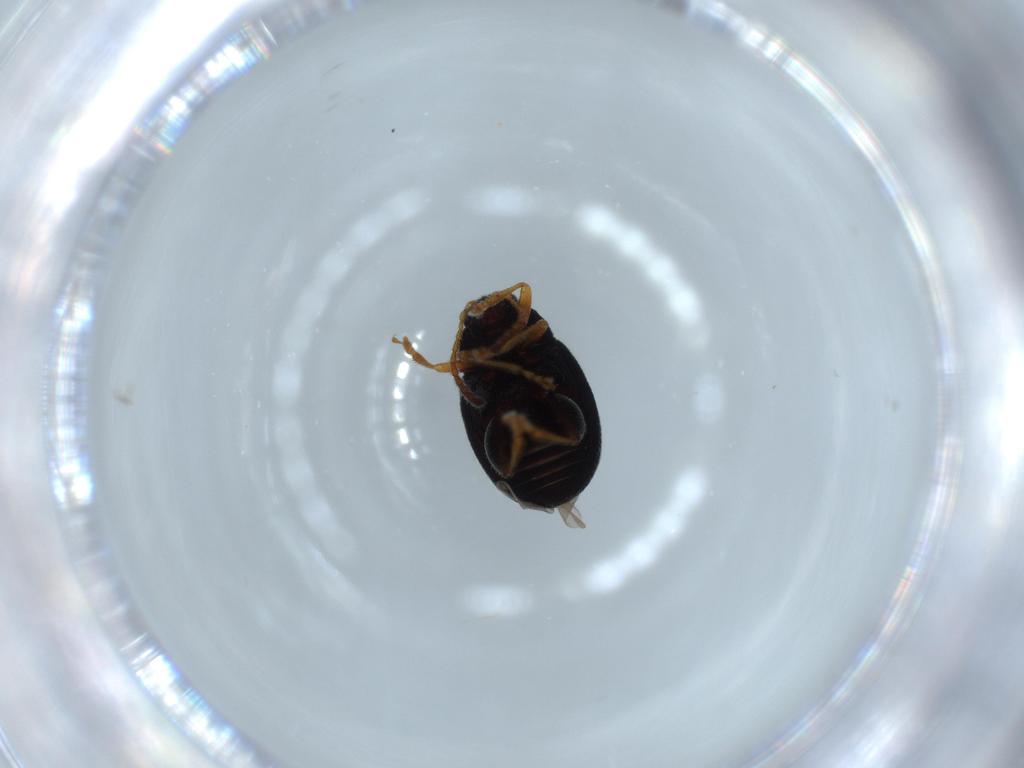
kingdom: Animalia
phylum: Arthropoda
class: Insecta
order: Coleoptera
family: Chrysomelidae
